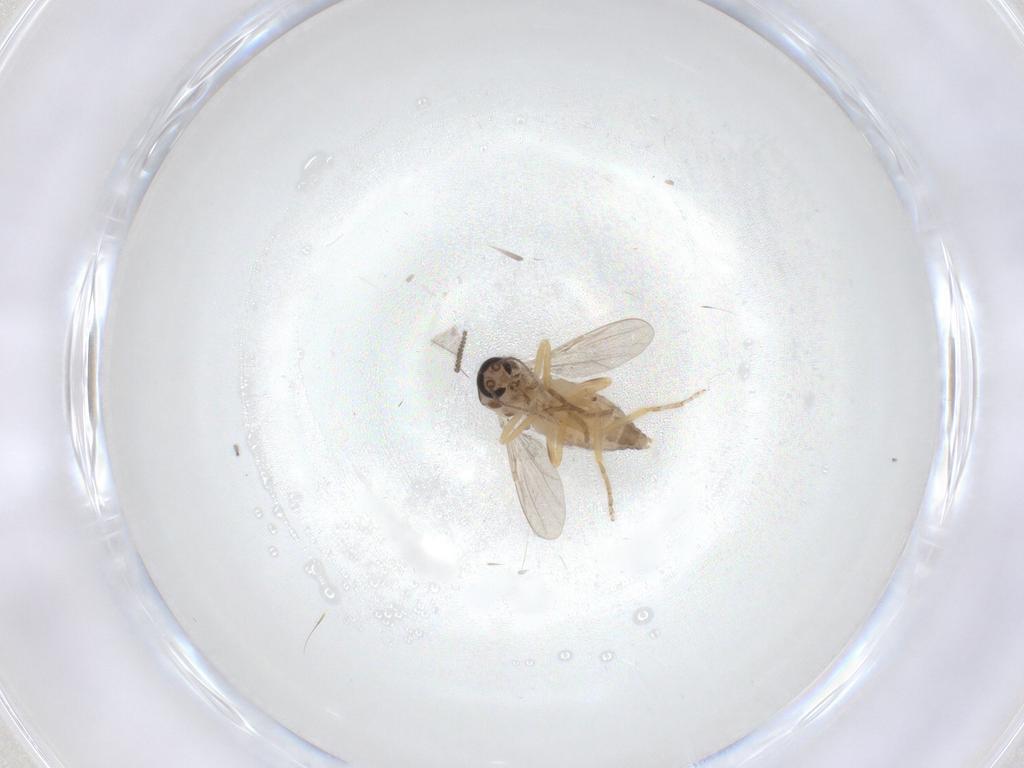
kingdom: Animalia
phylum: Arthropoda
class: Insecta
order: Diptera
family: Ceratopogonidae
